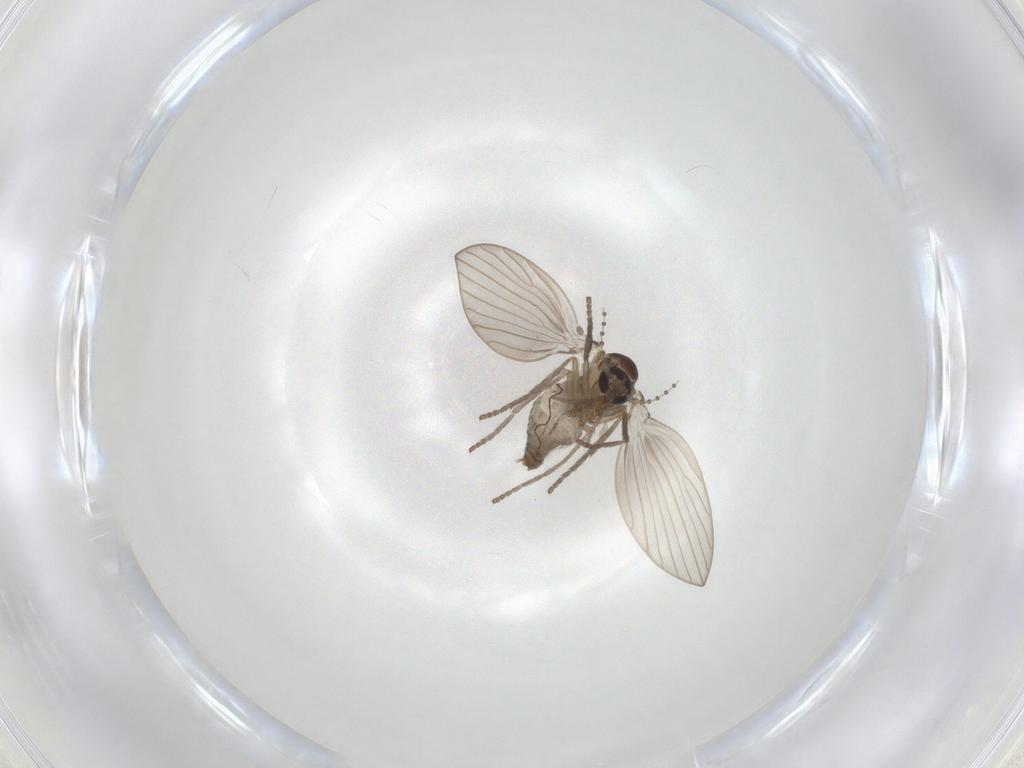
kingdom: Animalia
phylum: Arthropoda
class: Insecta
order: Diptera
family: Psychodidae
